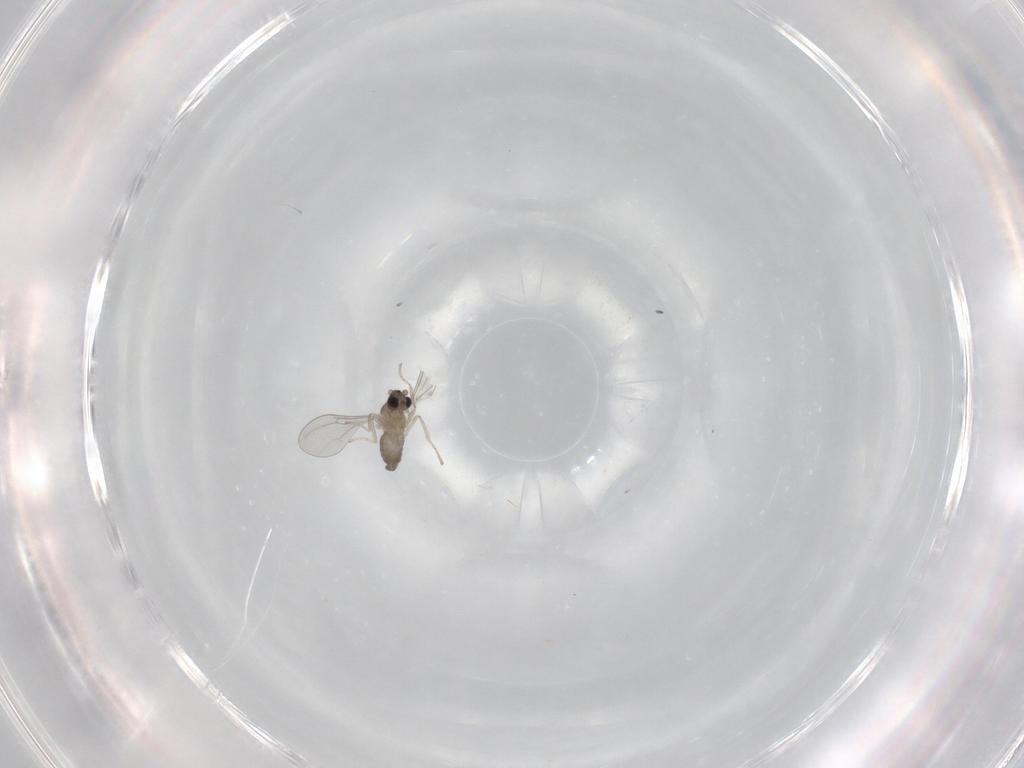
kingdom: Animalia
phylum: Arthropoda
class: Insecta
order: Diptera
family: Cecidomyiidae
